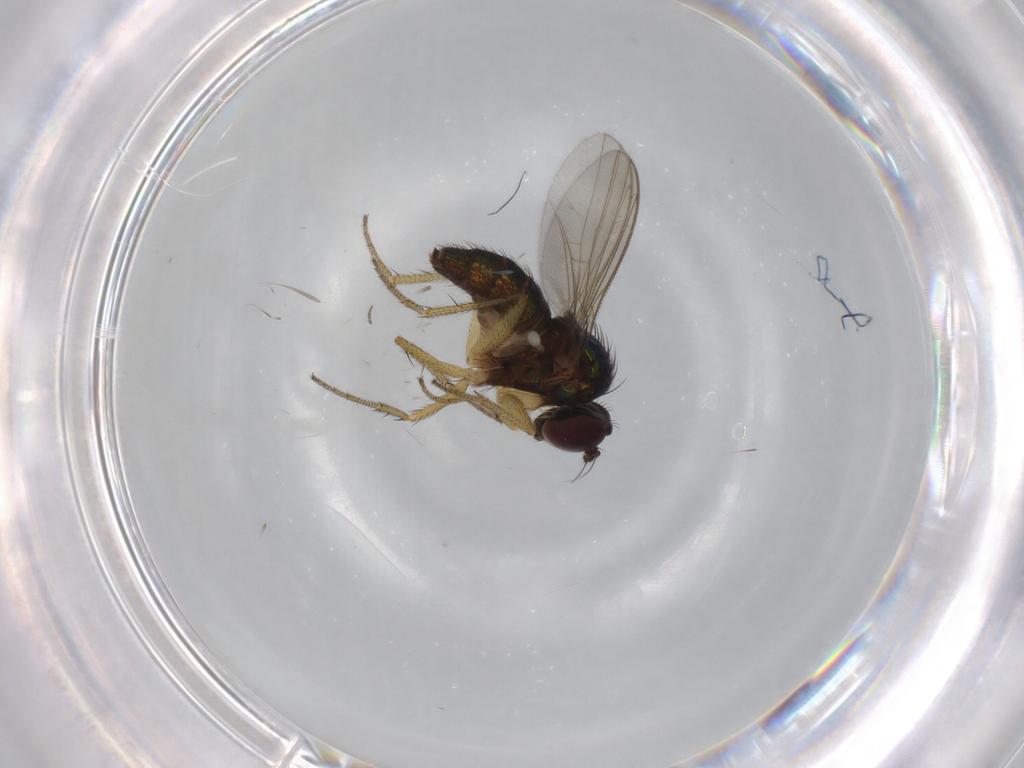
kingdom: Animalia
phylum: Arthropoda
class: Insecta
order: Diptera
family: Dolichopodidae
